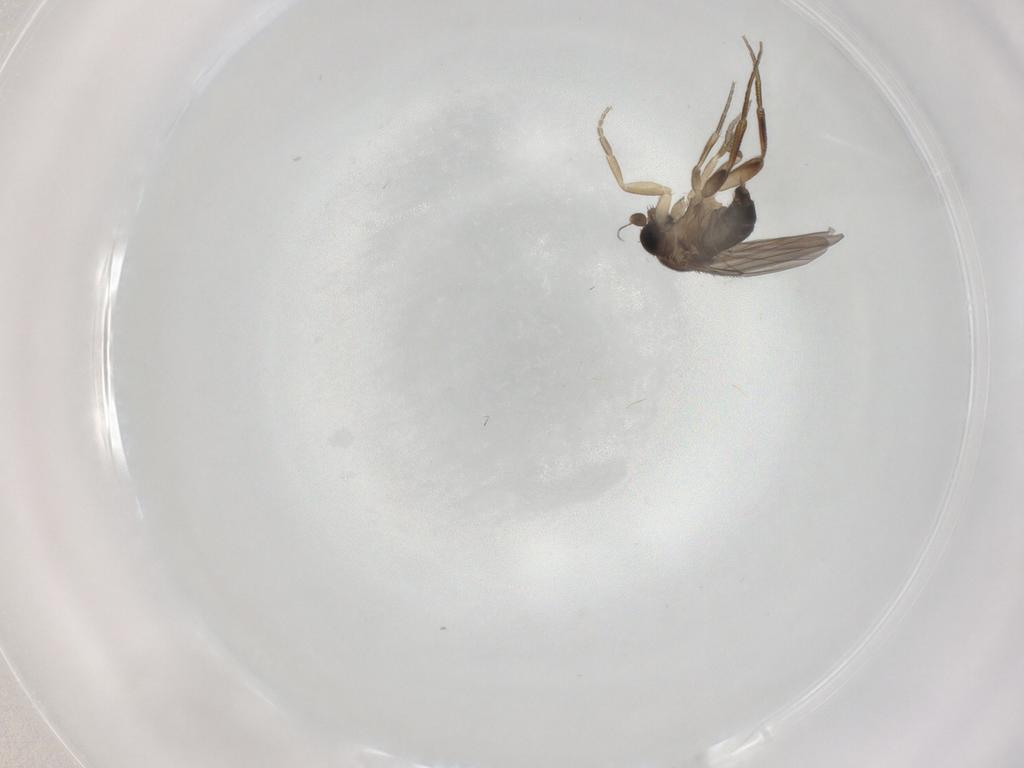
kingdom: Animalia
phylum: Arthropoda
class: Insecta
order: Diptera
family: Phoridae
